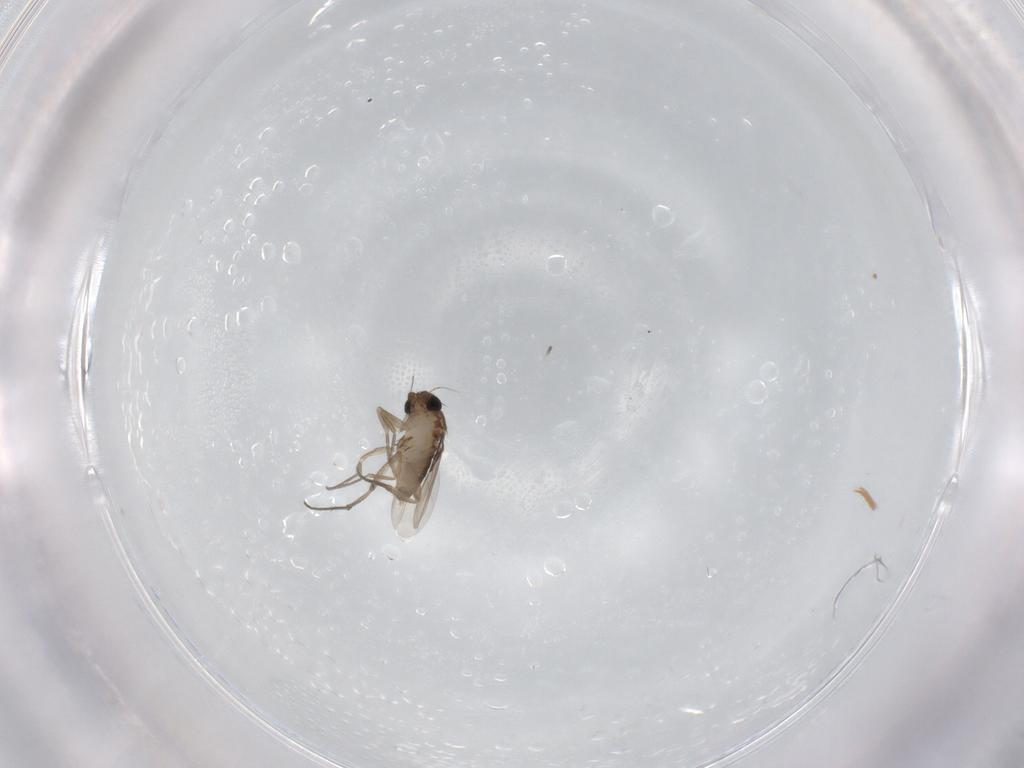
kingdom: Animalia
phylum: Arthropoda
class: Insecta
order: Diptera
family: Phoridae
